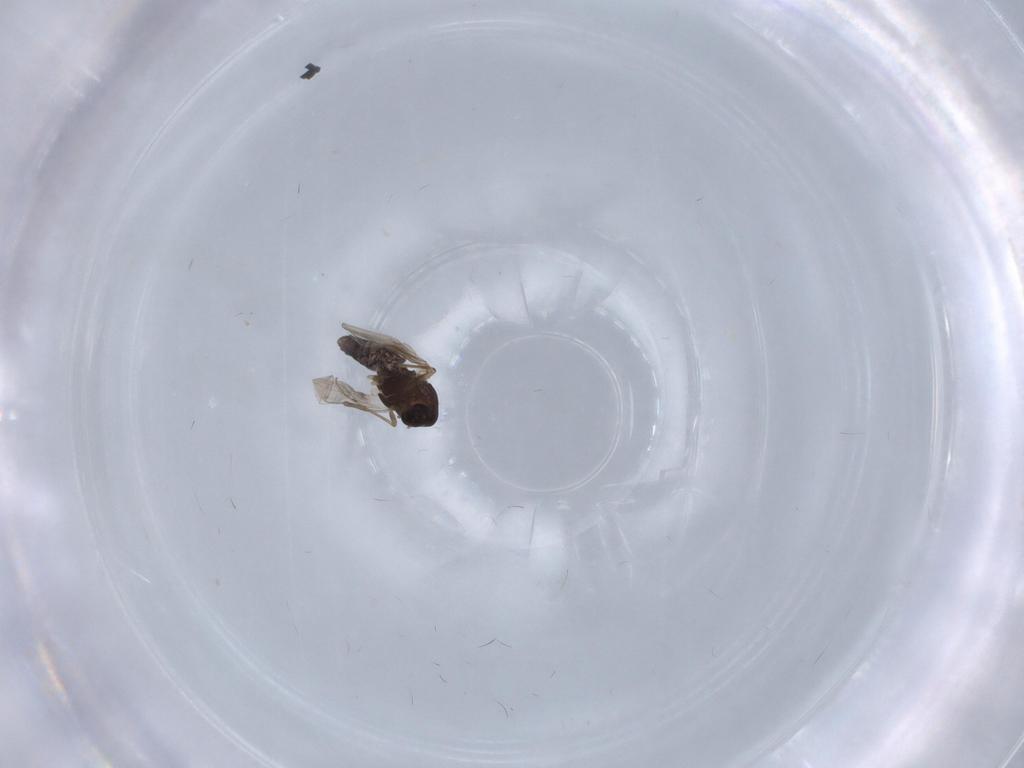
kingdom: Animalia
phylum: Arthropoda
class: Insecta
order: Diptera
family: Chironomidae
